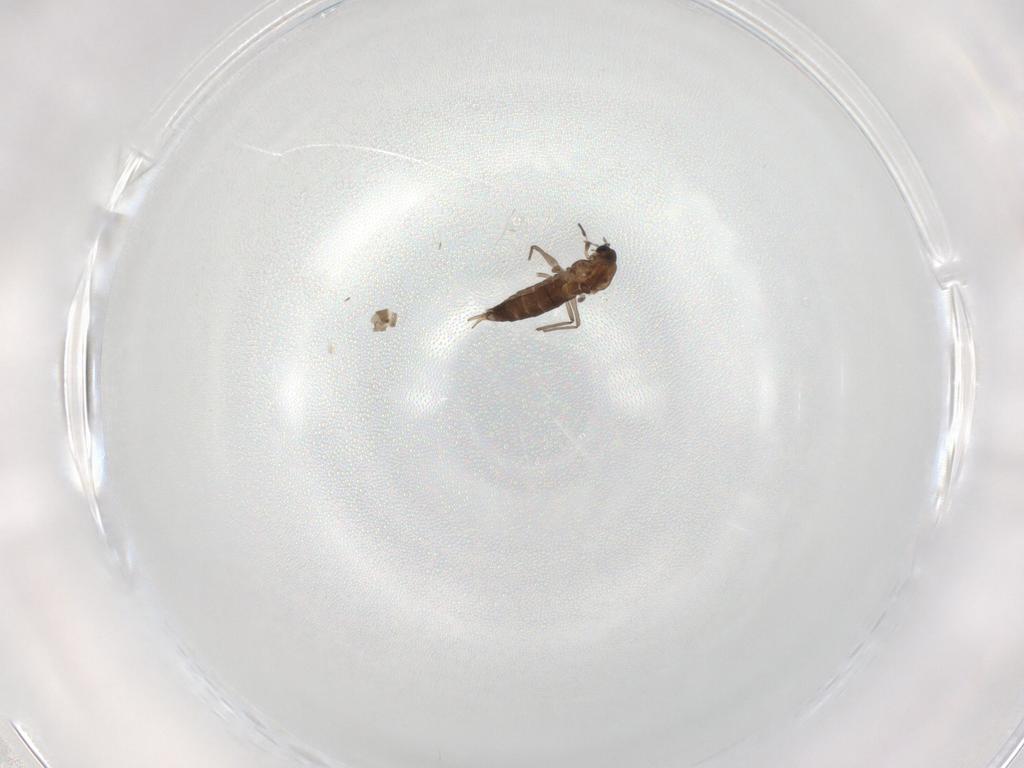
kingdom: Animalia
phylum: Arthropoda
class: Insecta
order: Diptera
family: Chironomidae
